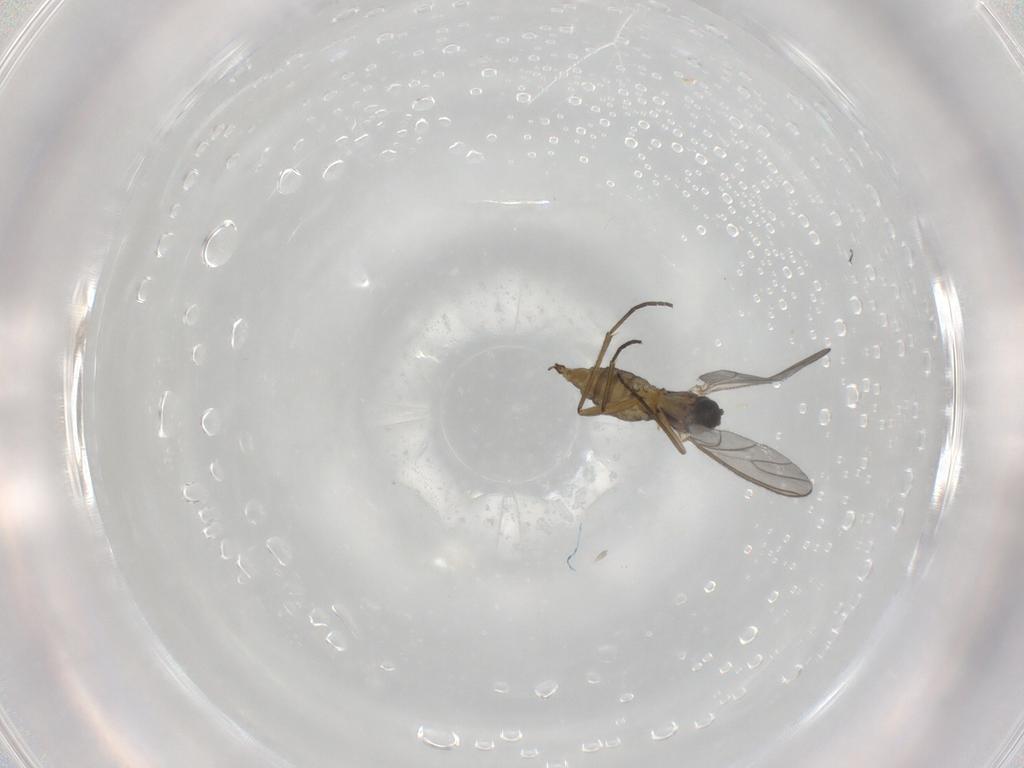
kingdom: Animalia
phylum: Arthropoda
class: Insecta
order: Diptera
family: Sciaridae
